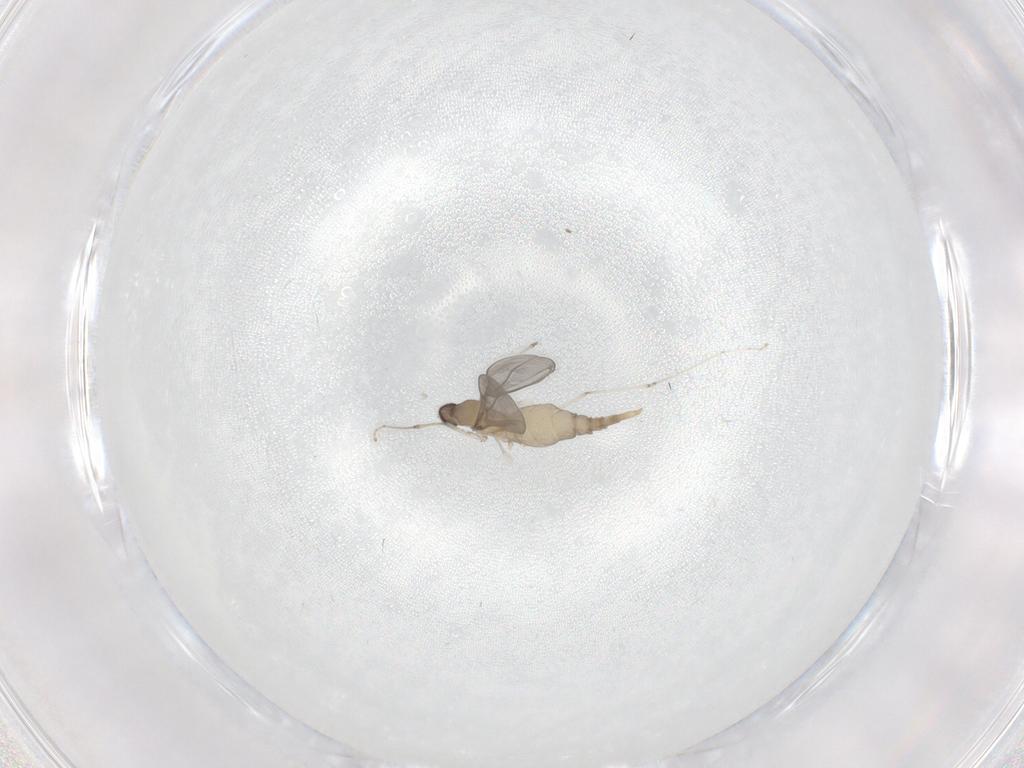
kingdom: Animalia
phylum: Arthropoda
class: Insecta
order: Diptera
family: Cecidomyiidae
